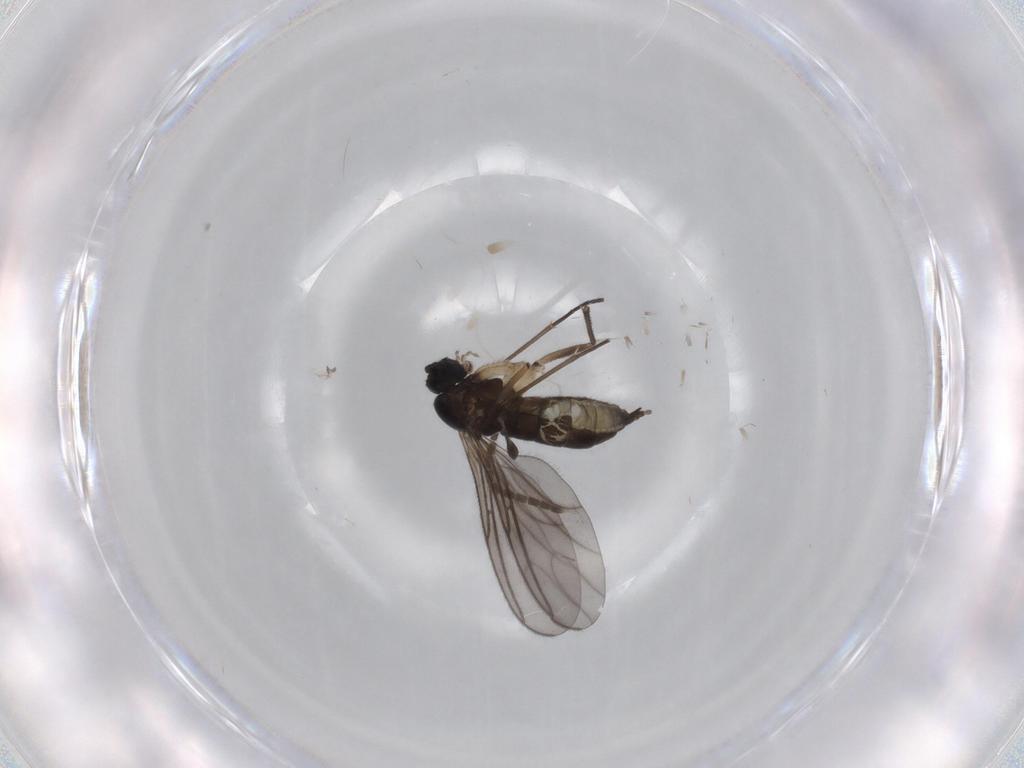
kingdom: Animalia
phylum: Arthropoda
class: Insecta
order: Diptera
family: Sciaridae
